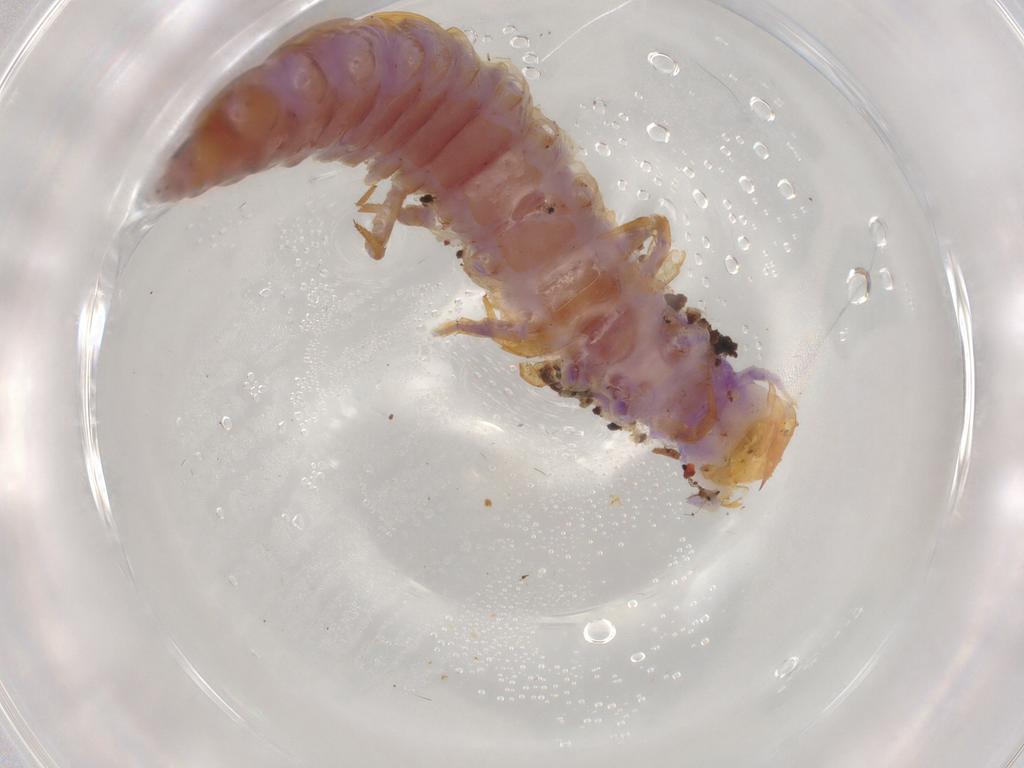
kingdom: Animalia
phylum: Arthropoda
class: Chilopoda
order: Lithobiomorpha
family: Lithobiidae
